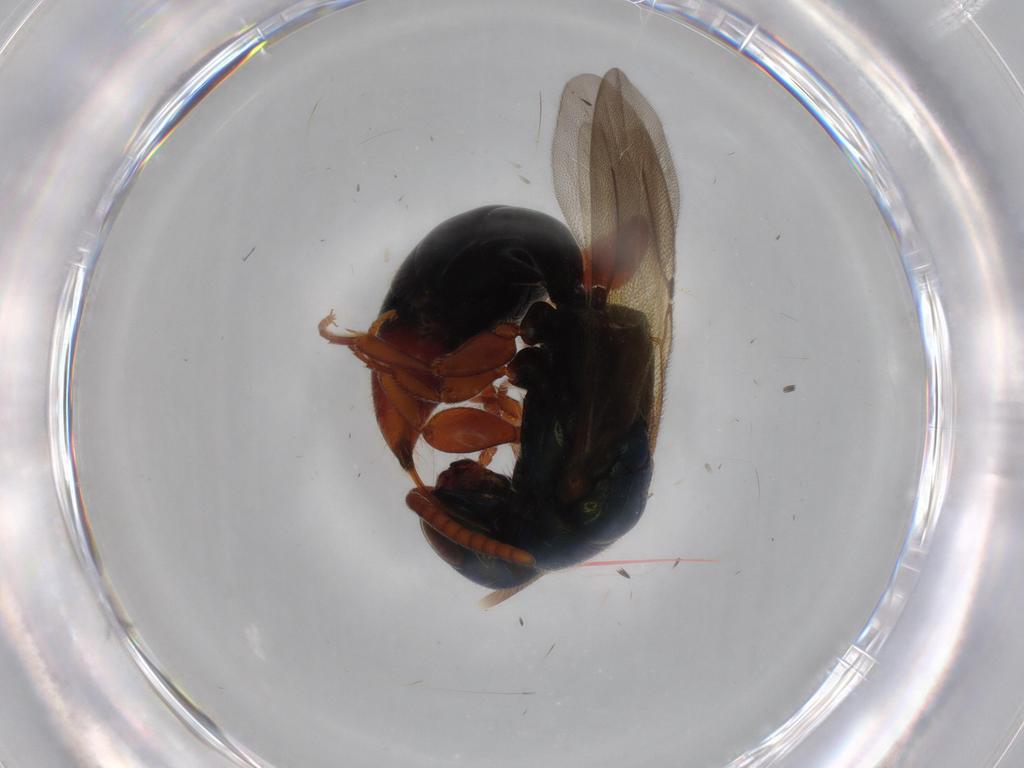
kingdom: Animalia
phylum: Arthropoda
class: Insecta
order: Hymenoptera
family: Bethylidae
